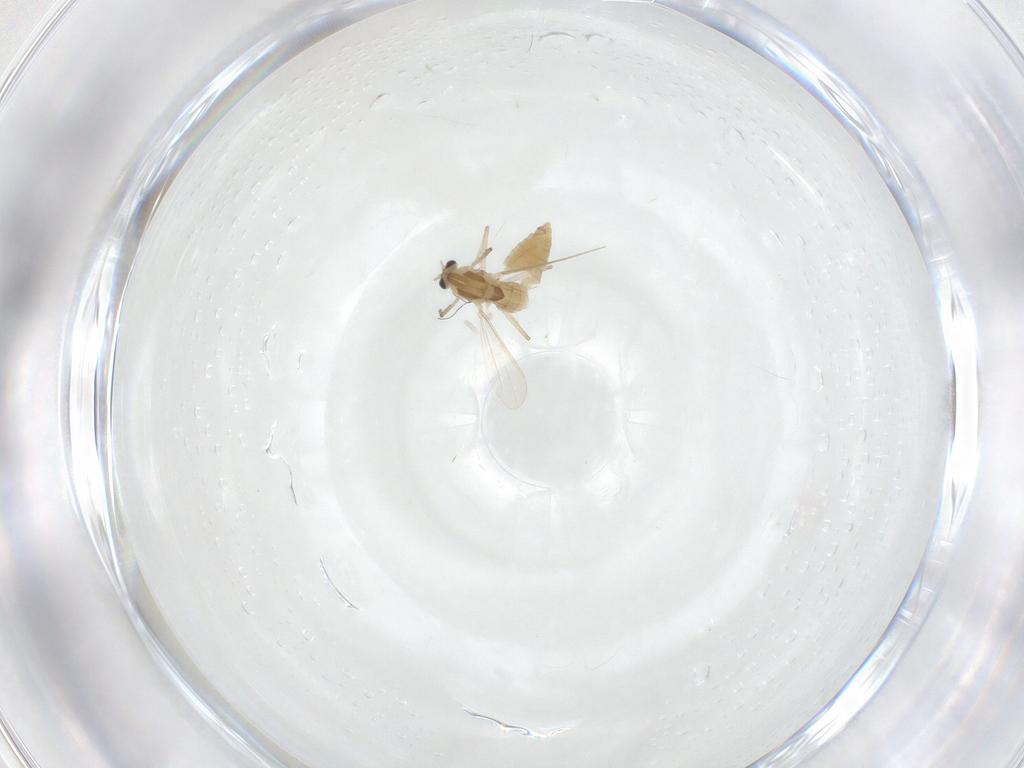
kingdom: Animalia
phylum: Arthropoda
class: Insecta
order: Diptera
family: Chironomidae
